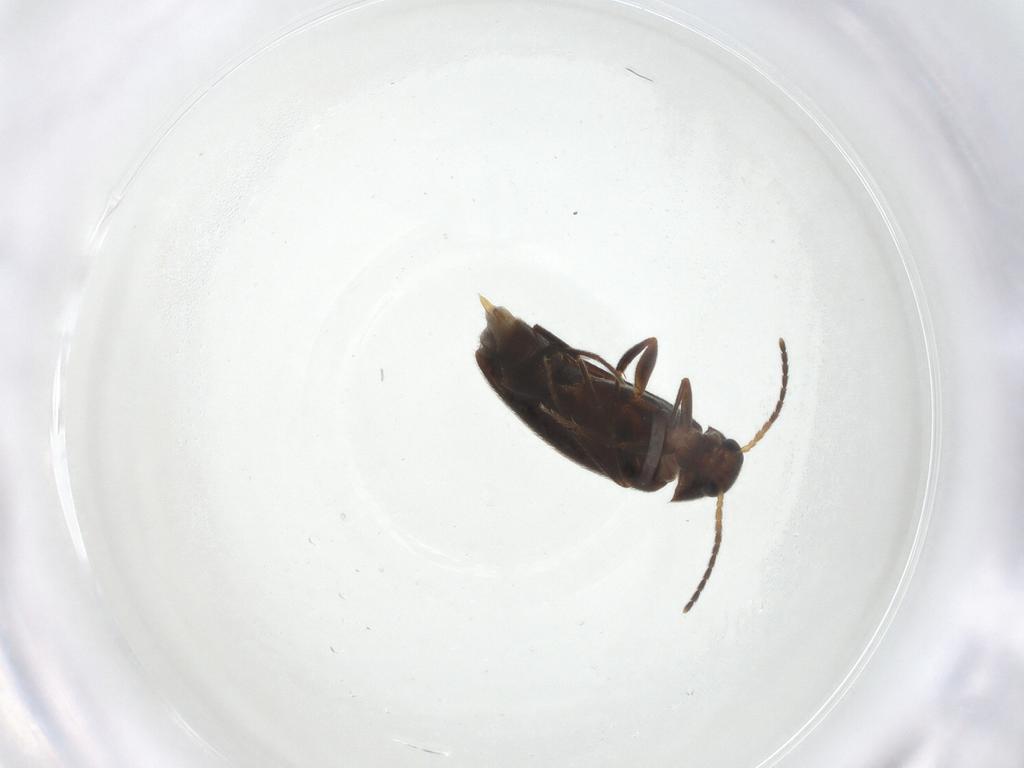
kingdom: Animalia
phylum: Arthropoda
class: Insecta
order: Coleoptera
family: Melandryidae
